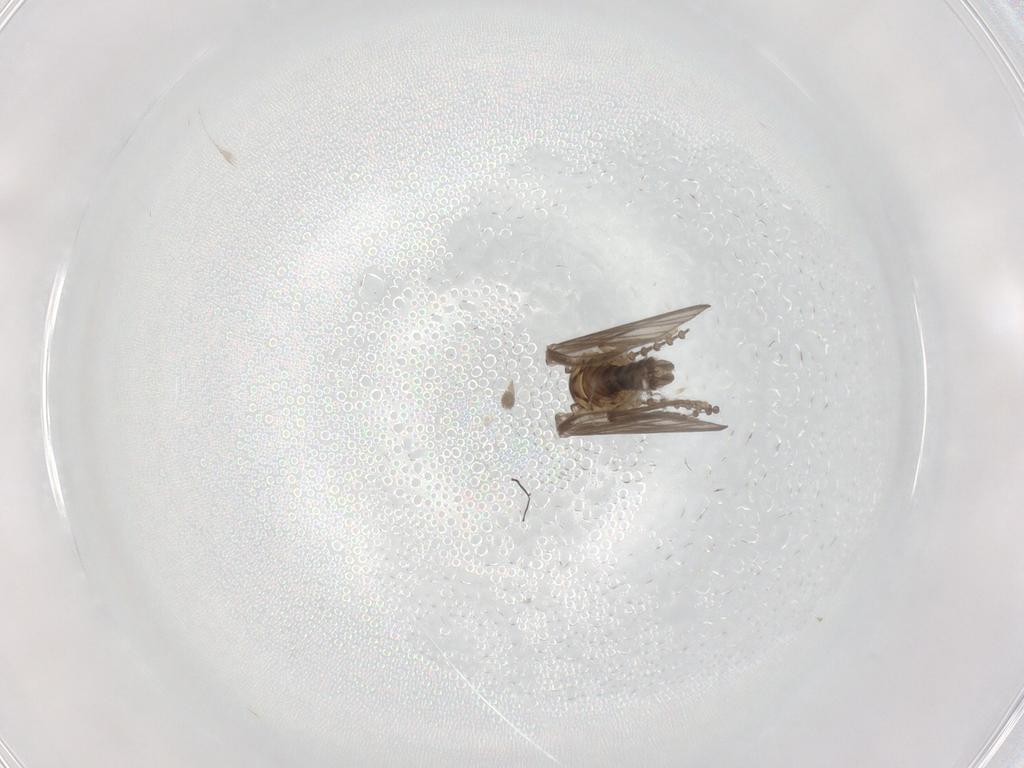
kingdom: Animalia
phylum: Arthropoda
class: Insecta
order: Diptera
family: Psychodidae
